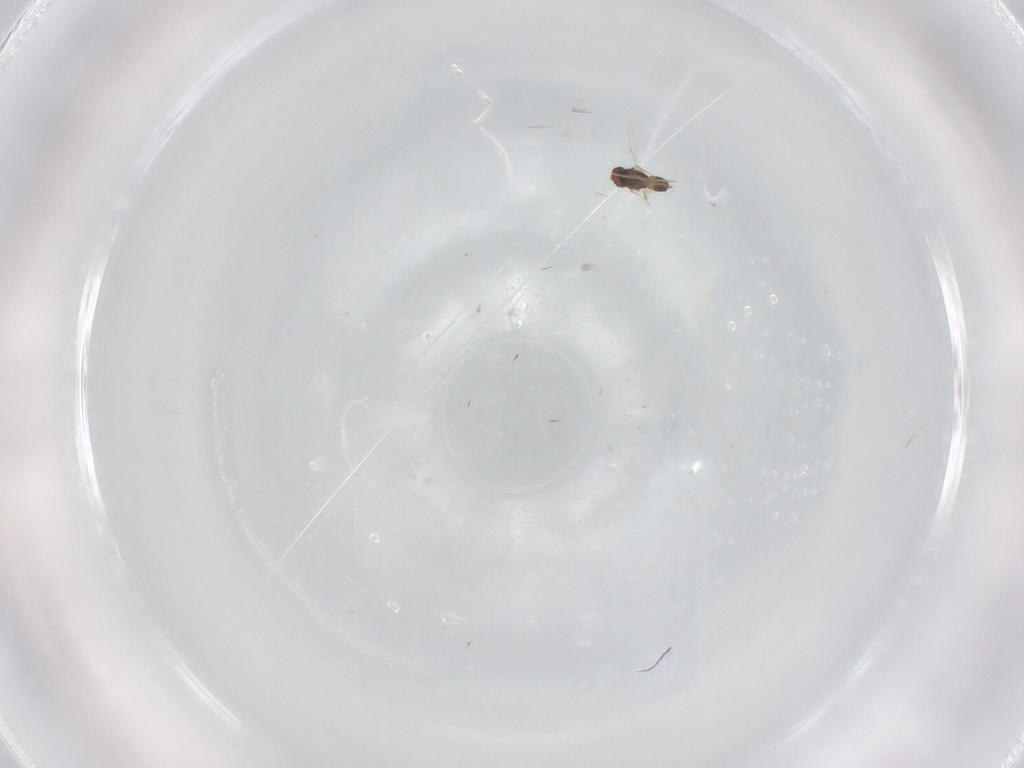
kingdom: Animalia
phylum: Arthropoda
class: Insecta
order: Hymenoptera
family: Eulophidae
